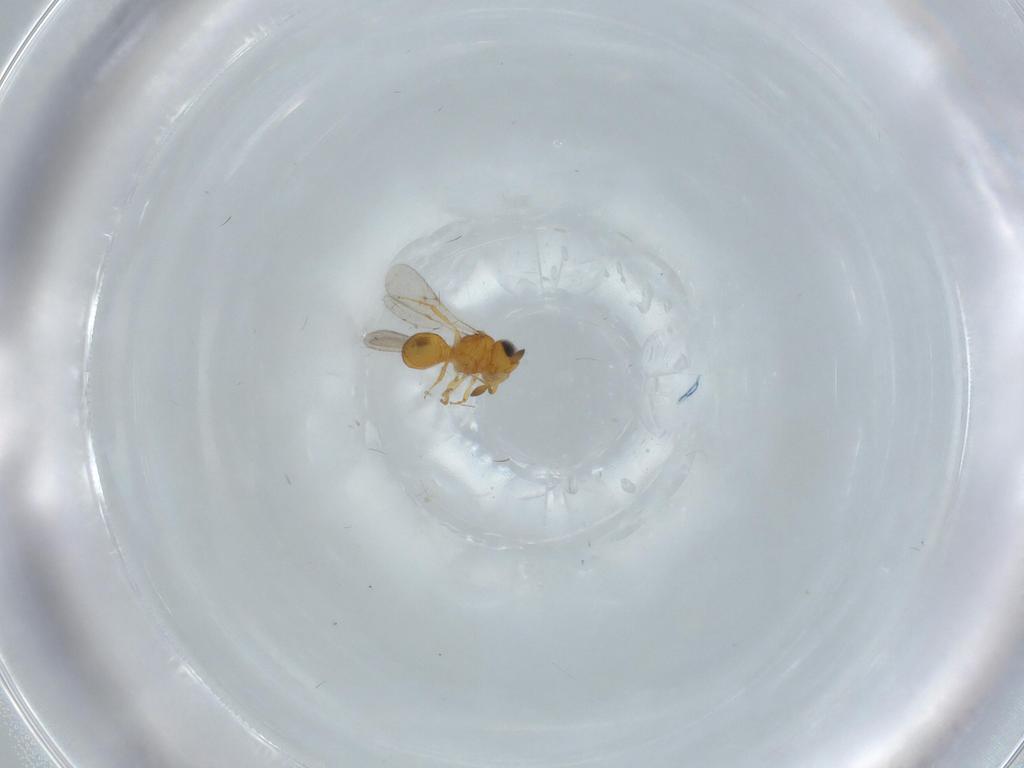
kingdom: Animalia
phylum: Arthropoda
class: Insecta
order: Hymenoptera
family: Scelionidae
